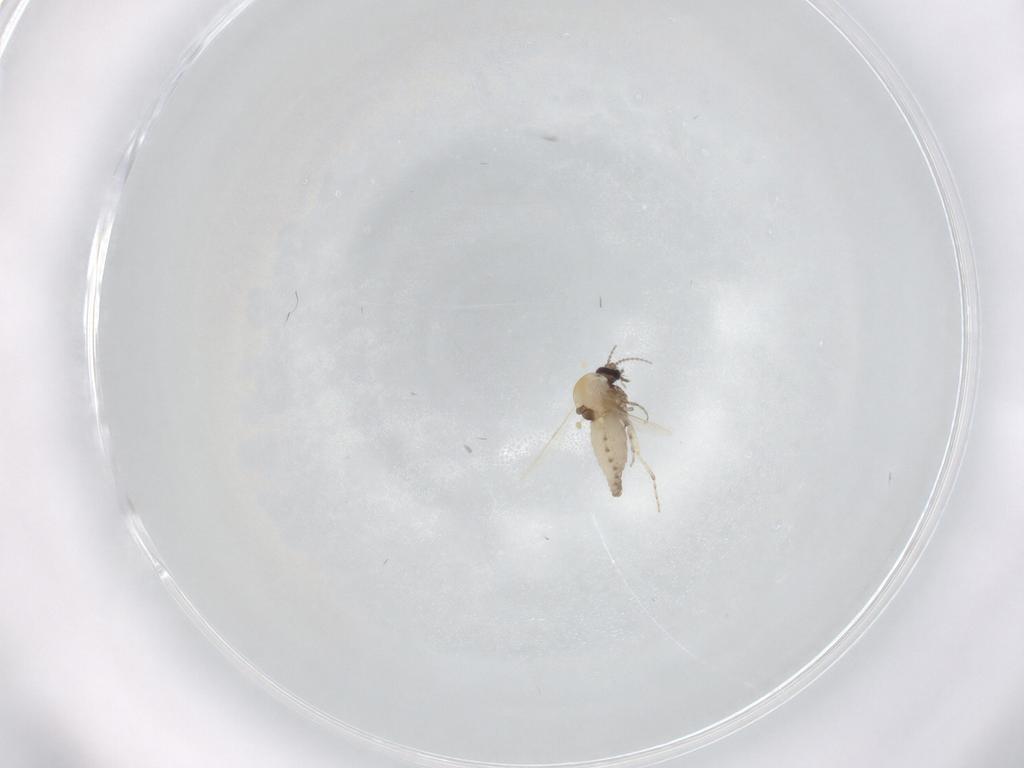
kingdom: Animalia
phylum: Arthropoda
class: Insecta
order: Diptera
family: Ceratopogonidae
